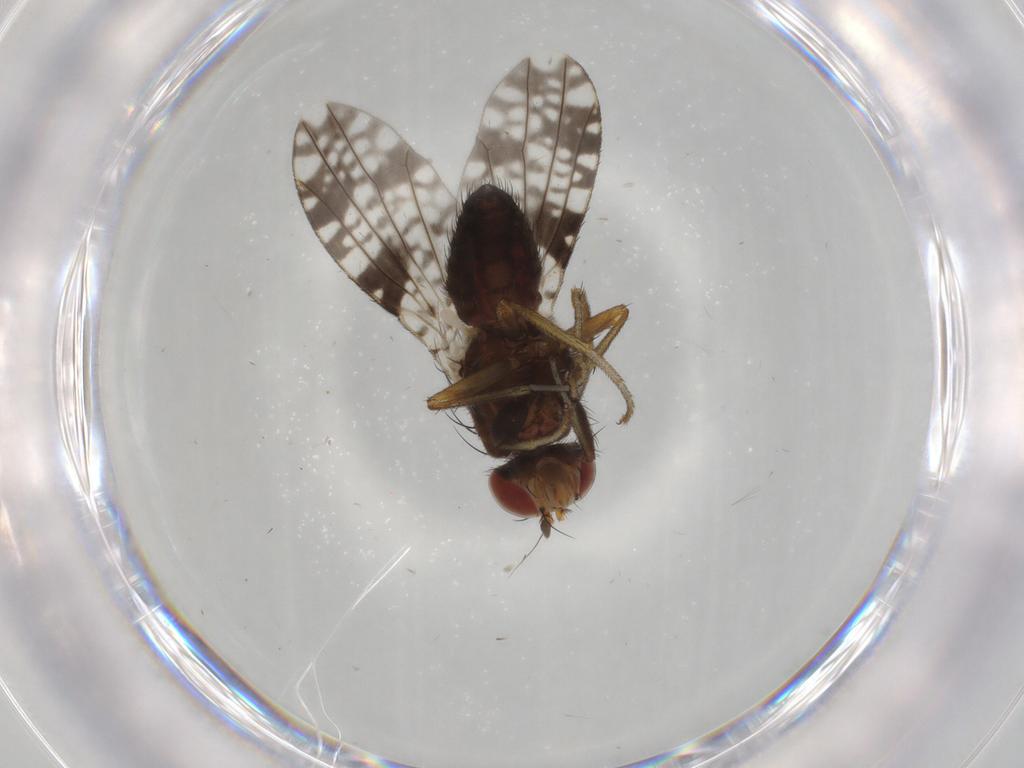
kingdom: Animalia
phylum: Arthropoda
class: Insecta
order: Diptera
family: Tephritidae
